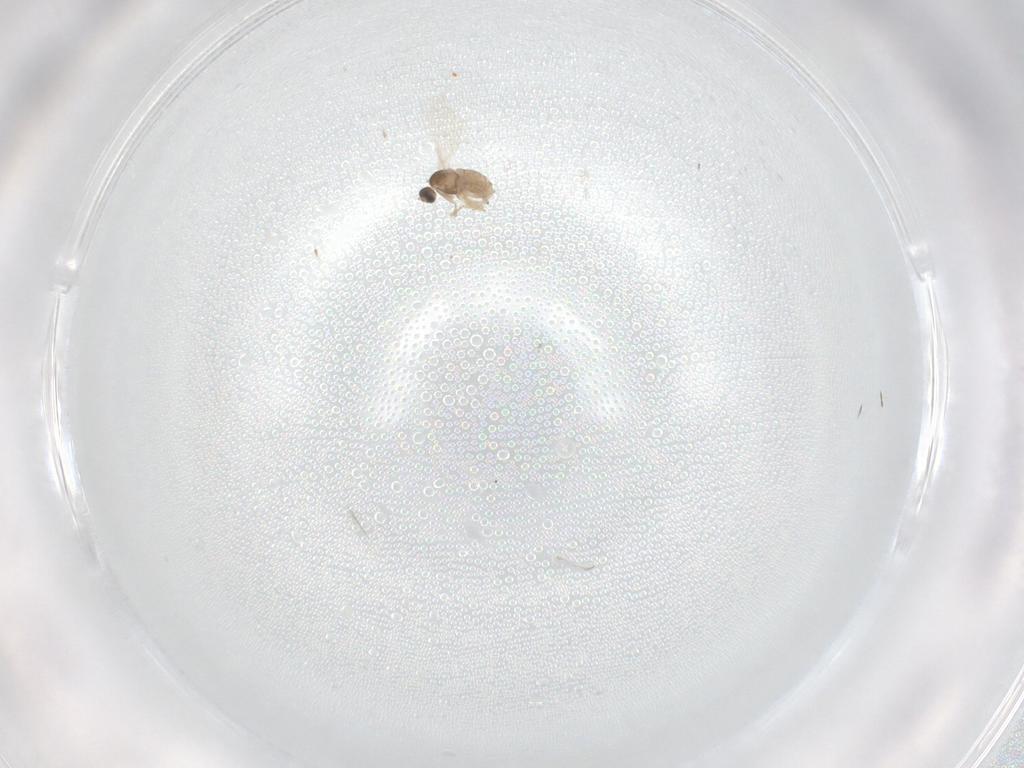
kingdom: Animalia
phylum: Arthropoda
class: Insecta
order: Diptera
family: Cecidomyiidae
